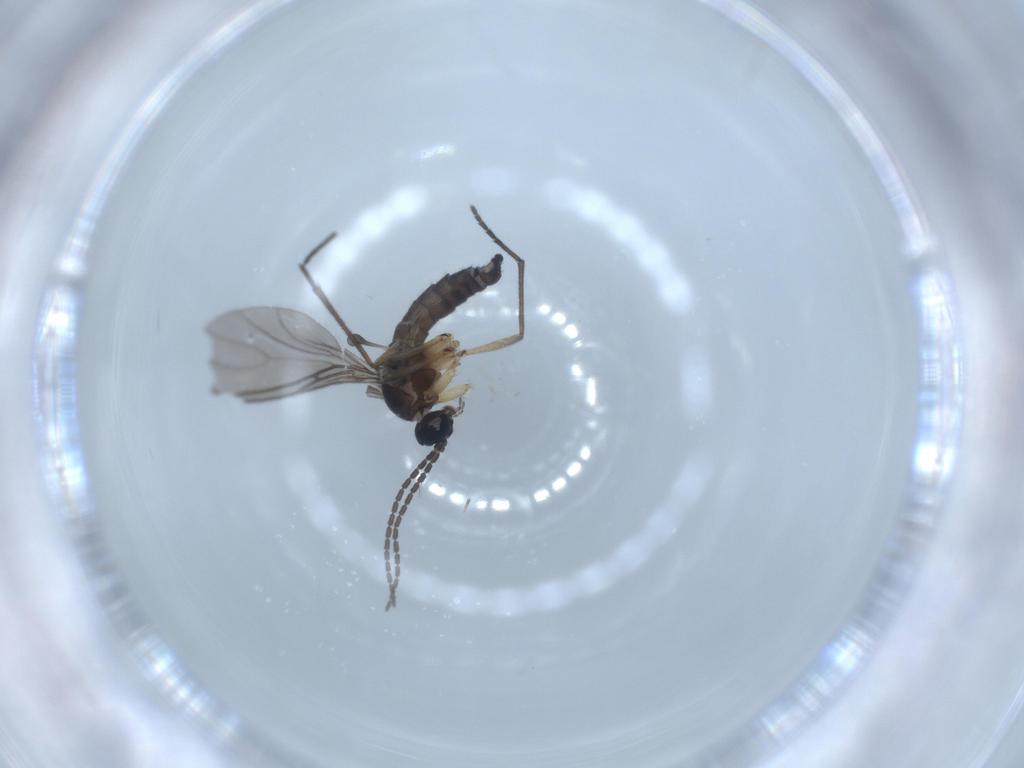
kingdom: Animalia
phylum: Arthropoda
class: Insecta
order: Diptera
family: Sciaridae
